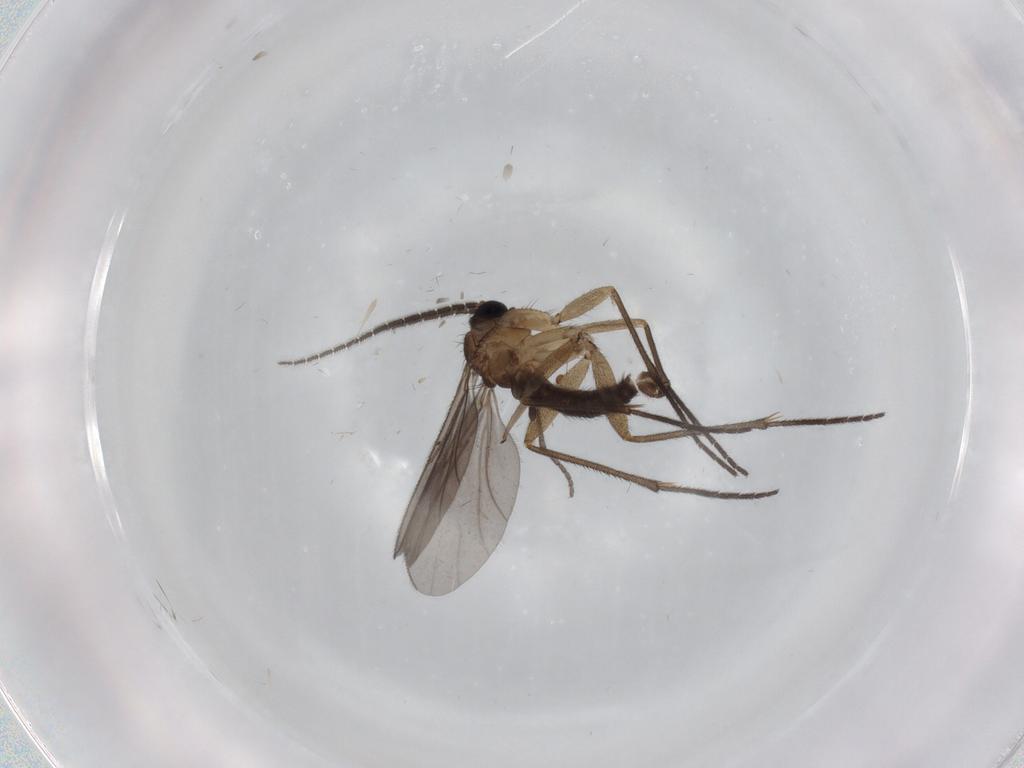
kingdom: Animalia
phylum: Arthropoda
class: Insecta
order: Diptera
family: Sciaridae
